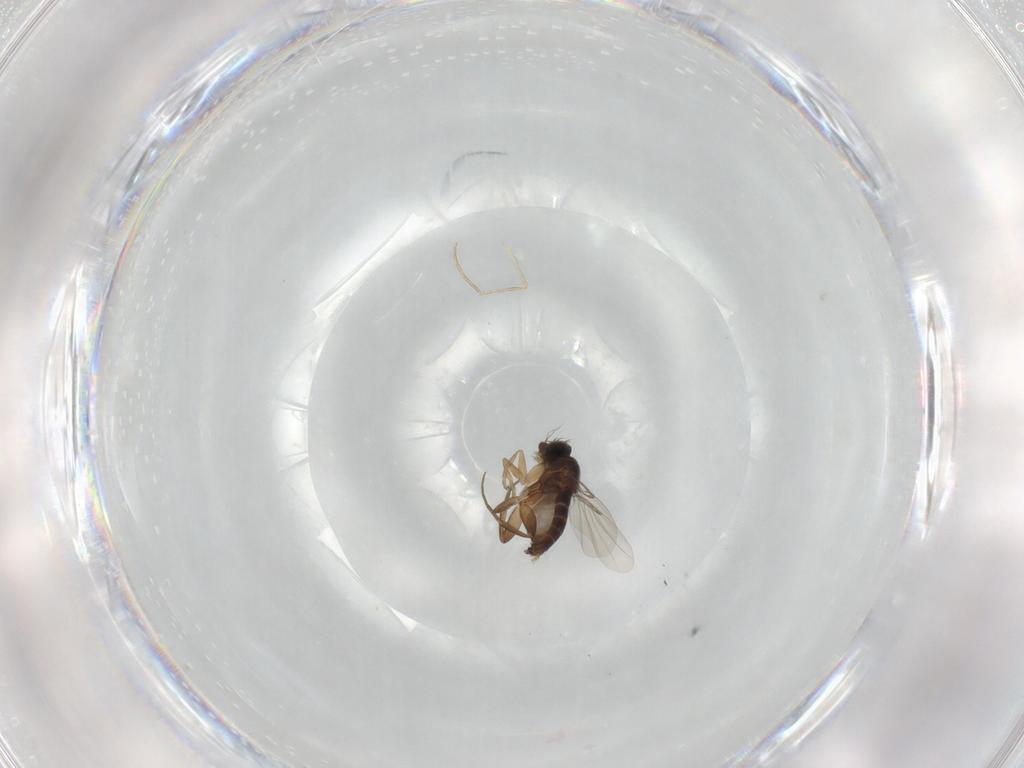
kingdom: Animalia
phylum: Arthropoda
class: Insecta
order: Diptera
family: Phoridae
